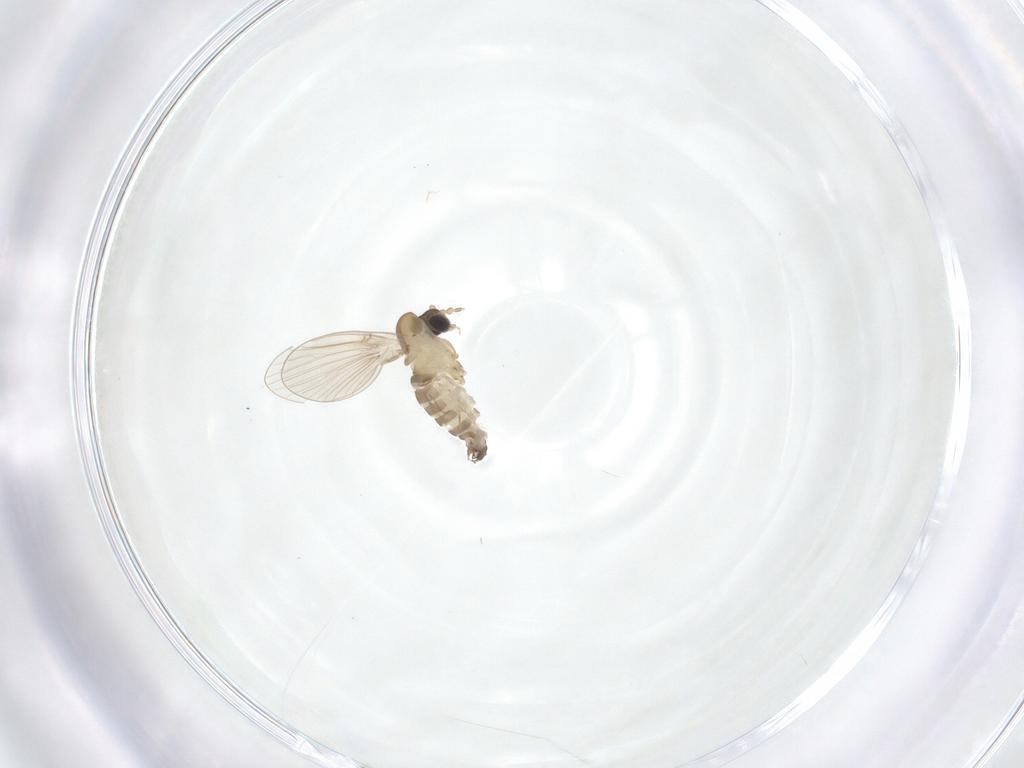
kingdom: Animalia
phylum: Arthropoda
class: Insecta
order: Diptera
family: Psychodidae
